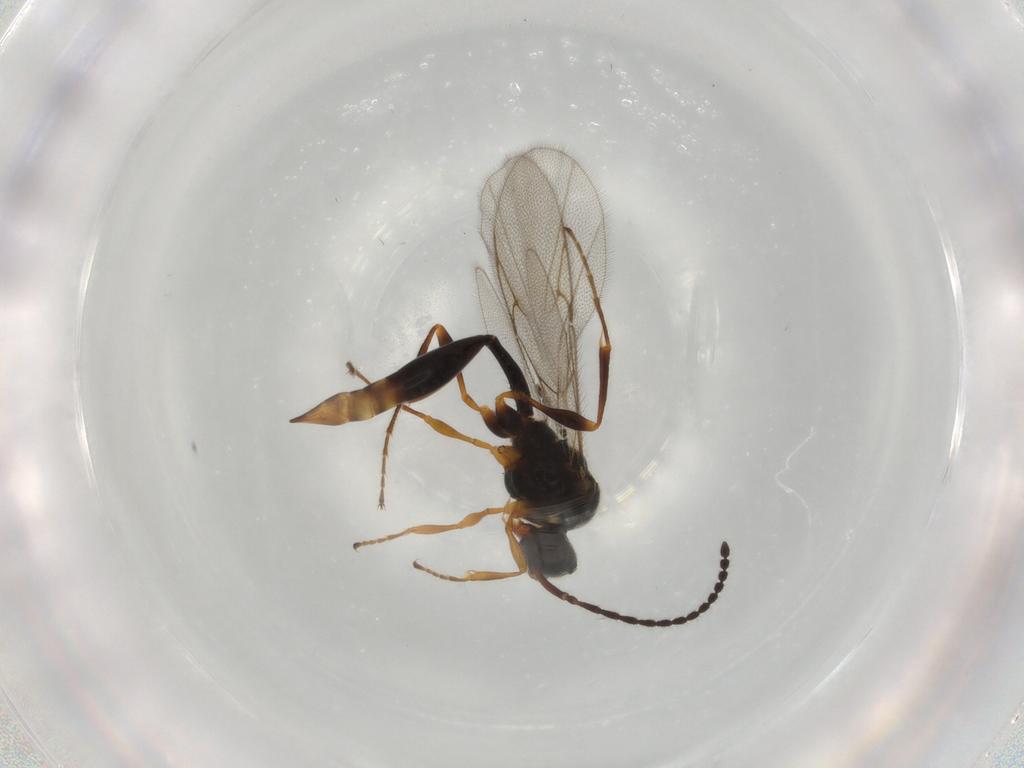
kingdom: Animalia
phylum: Arthropoda
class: Insecta
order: Hymenoptera
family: Diapriidae
